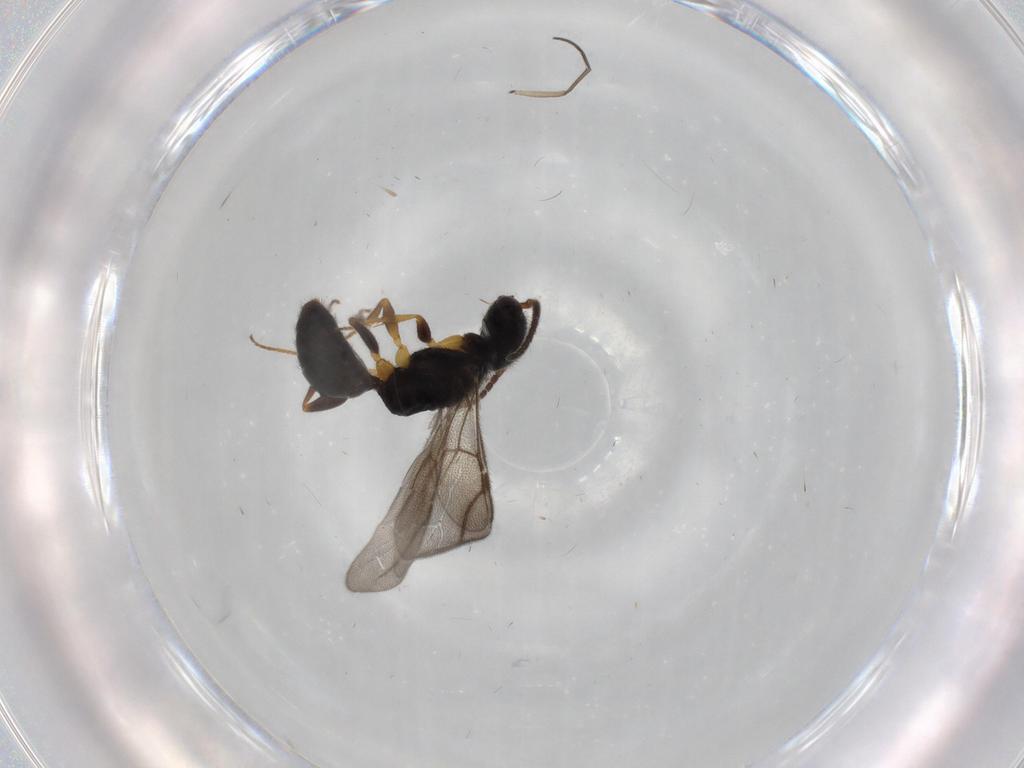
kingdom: Animalia
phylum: Arthropoda
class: Insecta
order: Hymenoptera
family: Bethylidae
